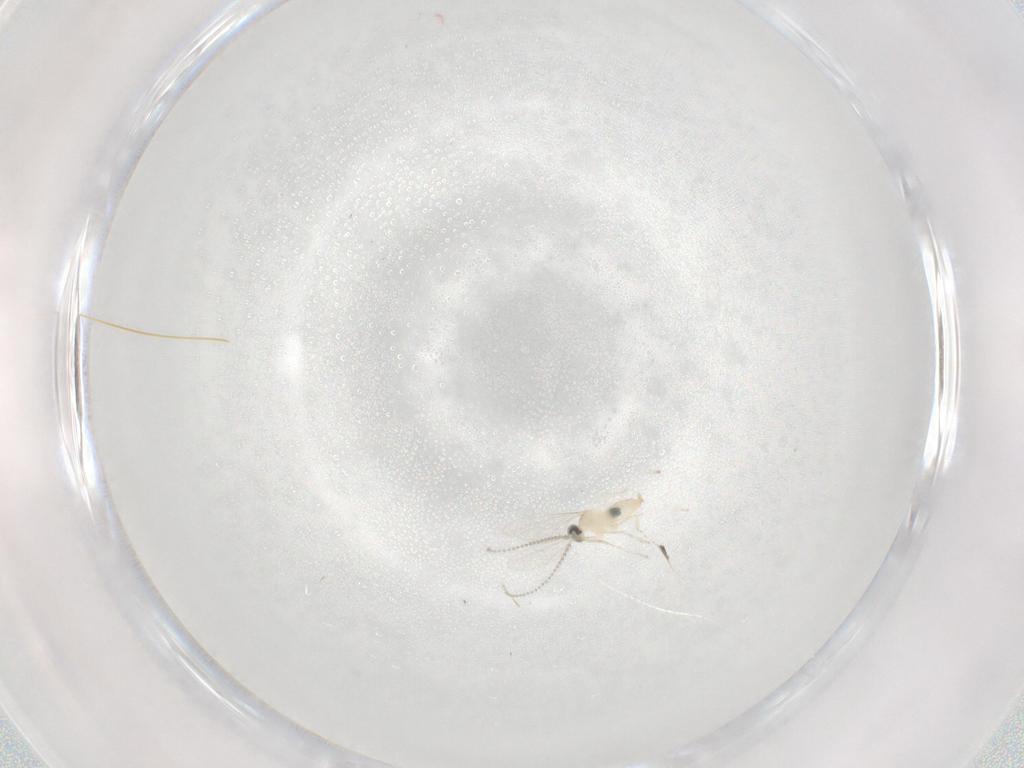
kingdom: Animalia
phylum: Arthropoda
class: Insecta
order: Diptera
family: Cecidomyiidae
